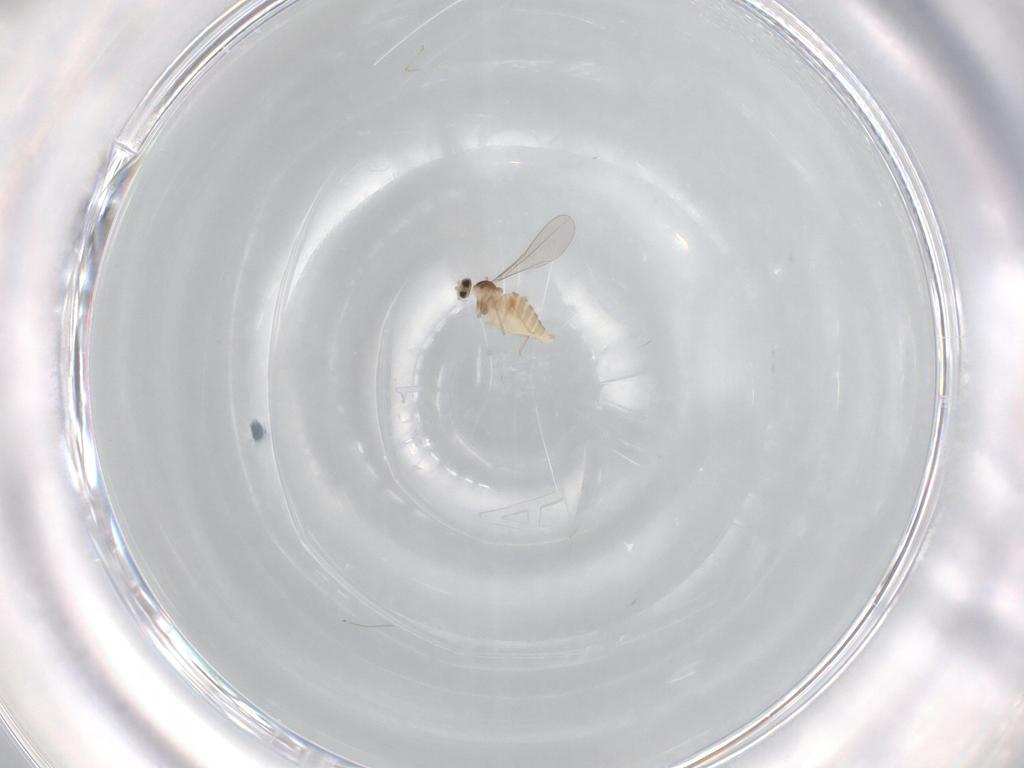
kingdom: Animalia
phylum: Arthropoda
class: Insecta
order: Diptera
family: Cecidomyiidae
